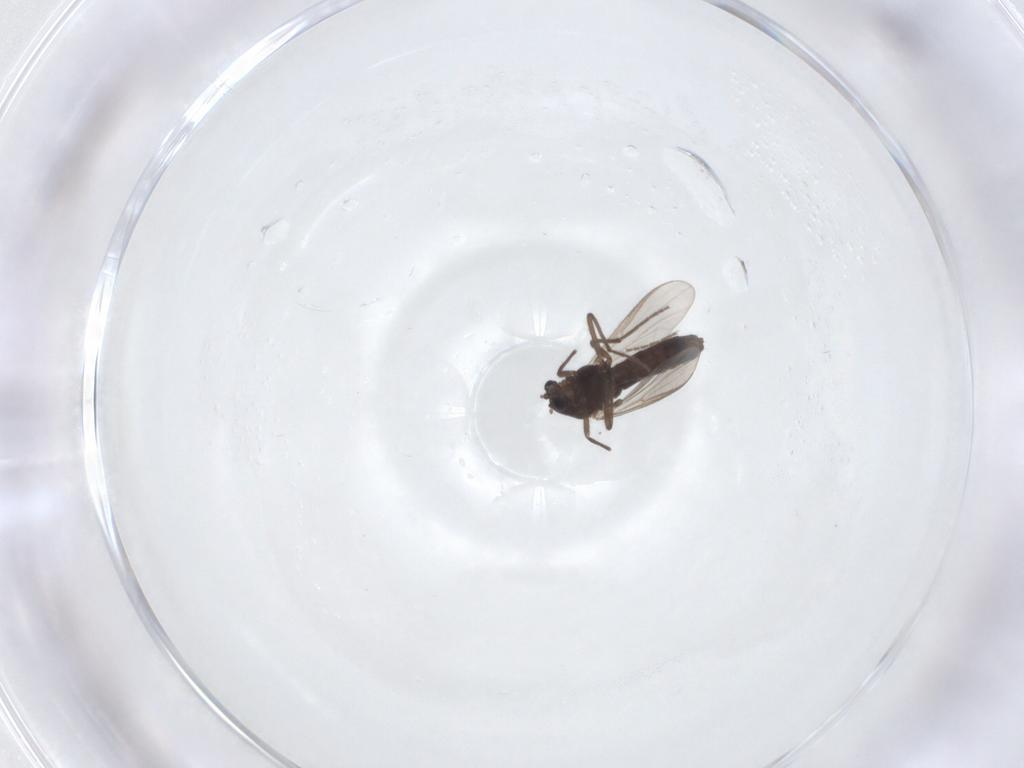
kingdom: Animalia
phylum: Arthropoda
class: Insecta
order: Diptera
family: Chironomidae
